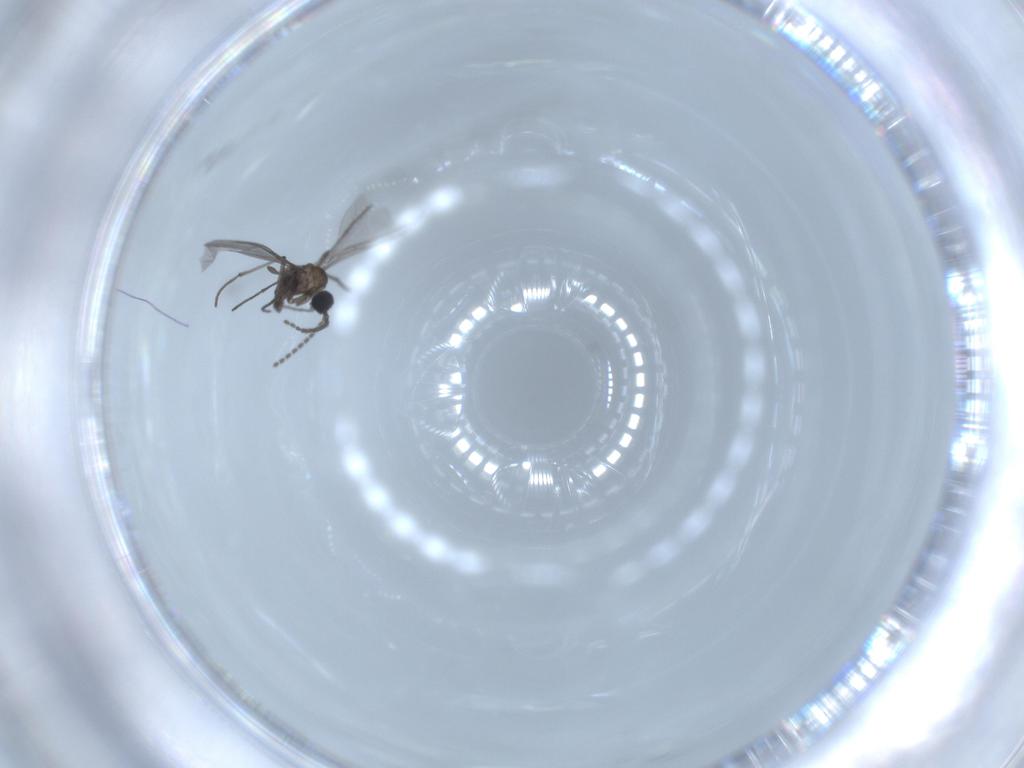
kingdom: Animalia
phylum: Arthropoda
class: Insecta
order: Diptera
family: Sciaridae
